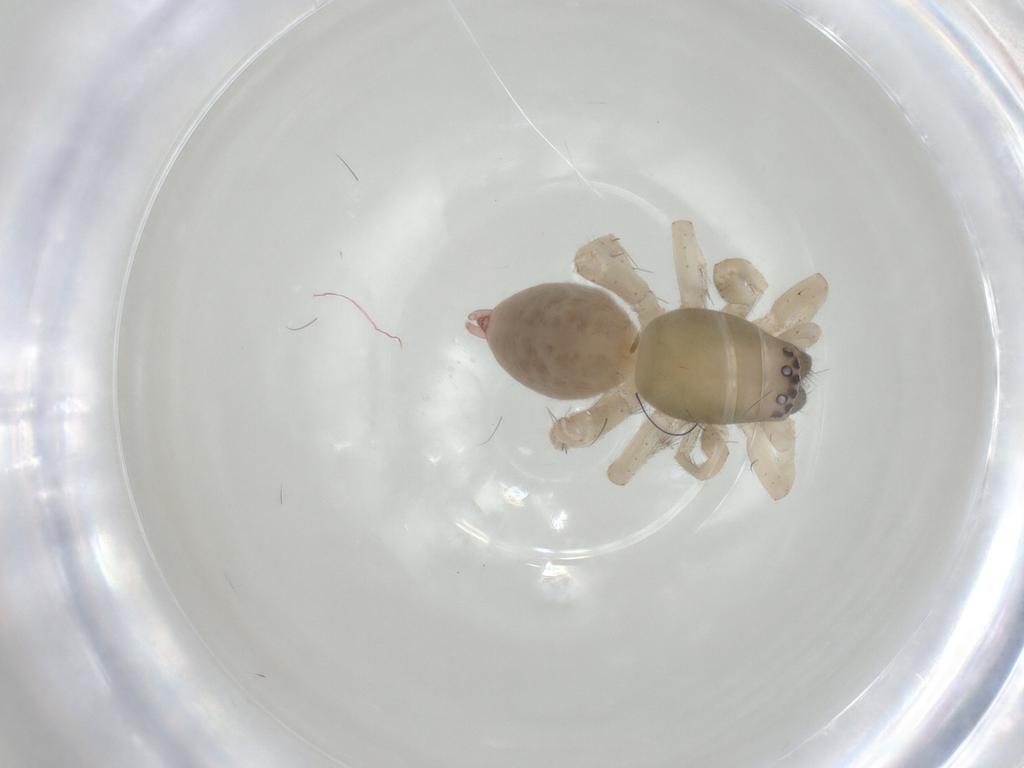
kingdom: Animalia
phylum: Arthropoda
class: Arachnida
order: Araneae
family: Clubionidae
